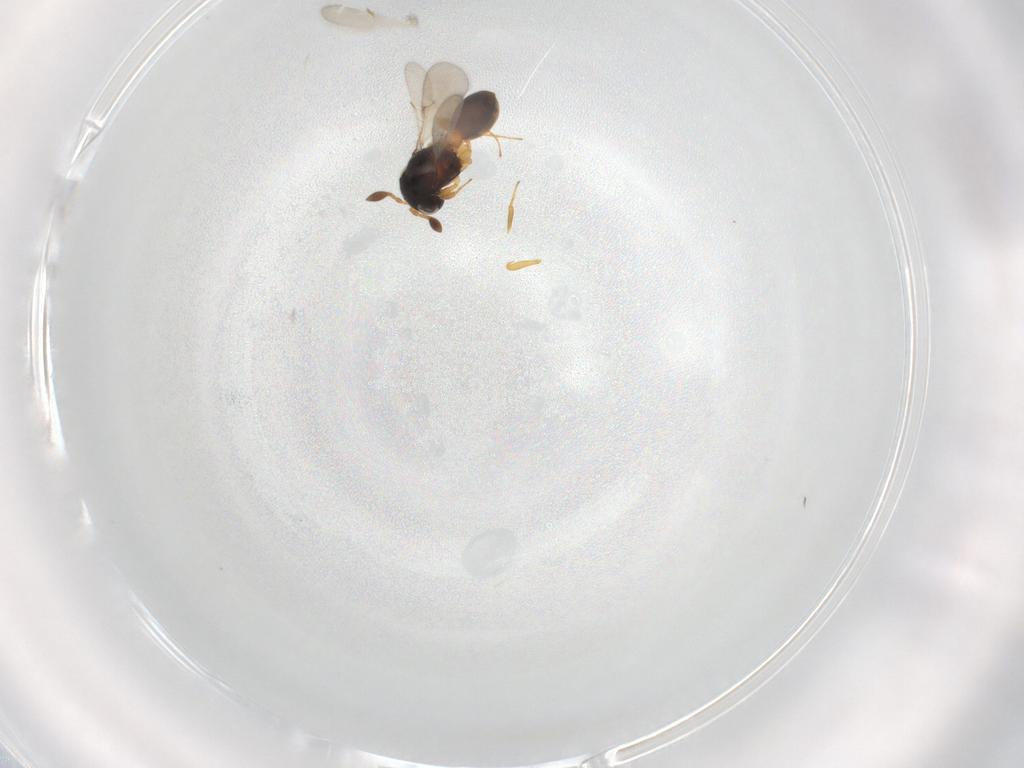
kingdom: Animalia
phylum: Arthropoda
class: Insecta
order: Hymenoptera
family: Scelionidae
